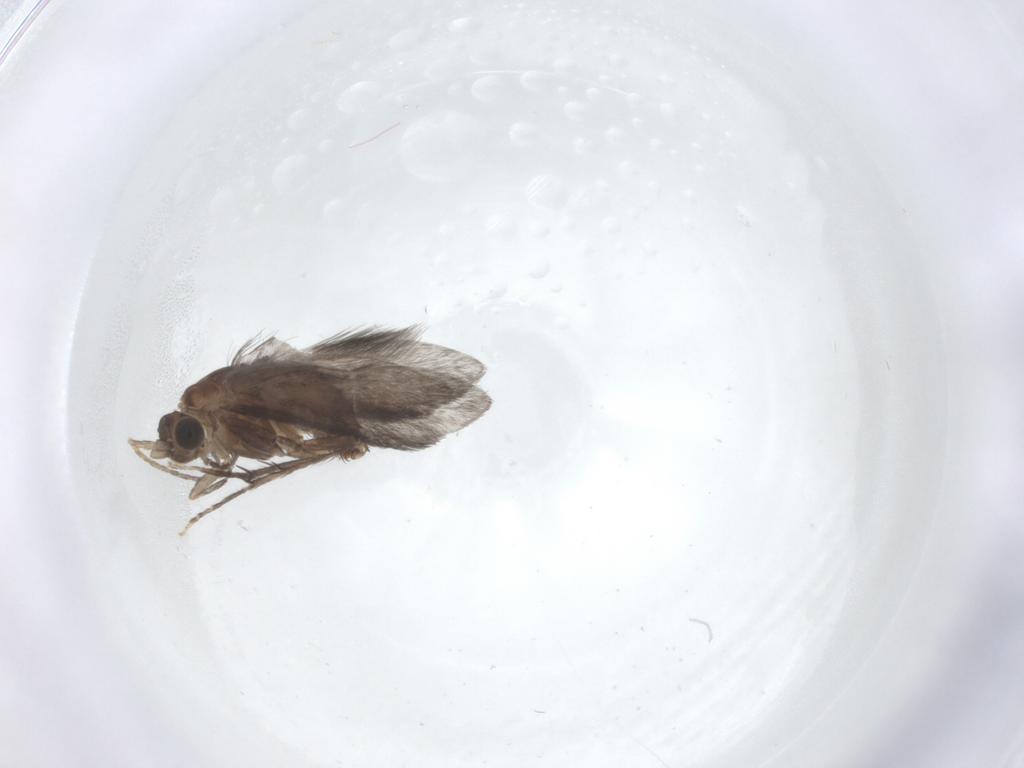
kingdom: Animalia
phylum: Arthropoda
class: Insecta
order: Trichoptera
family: Glossosomatidae
